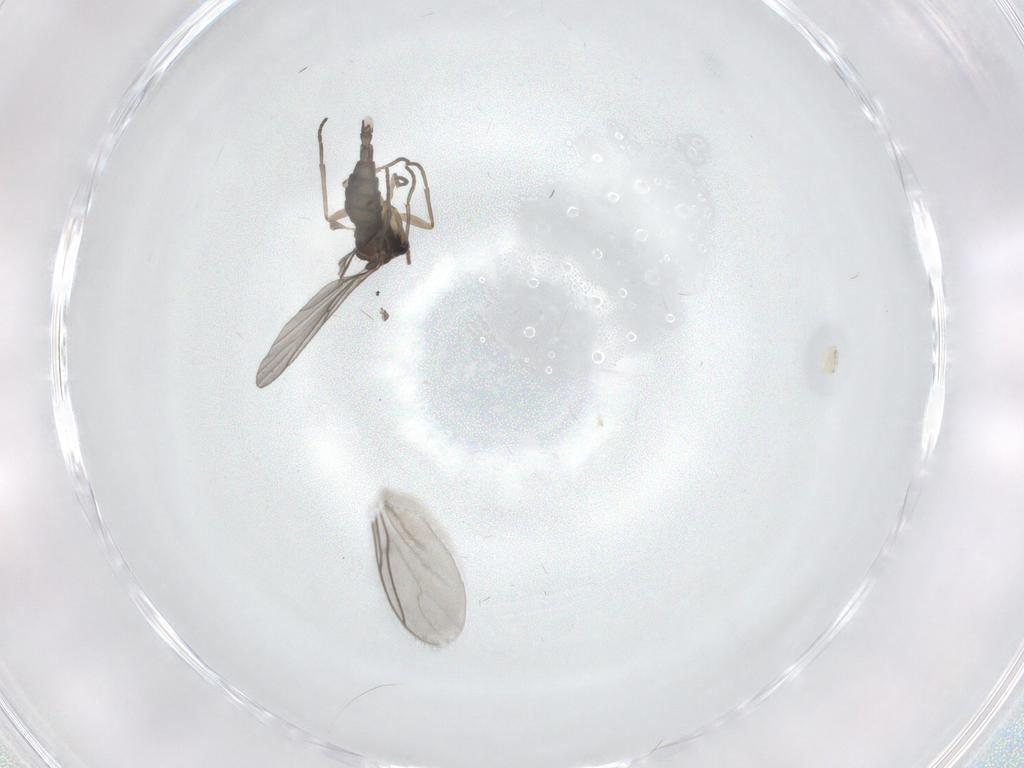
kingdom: Animalia
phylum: Arthropoda
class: Insecta
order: Diptera
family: Sciaridae
